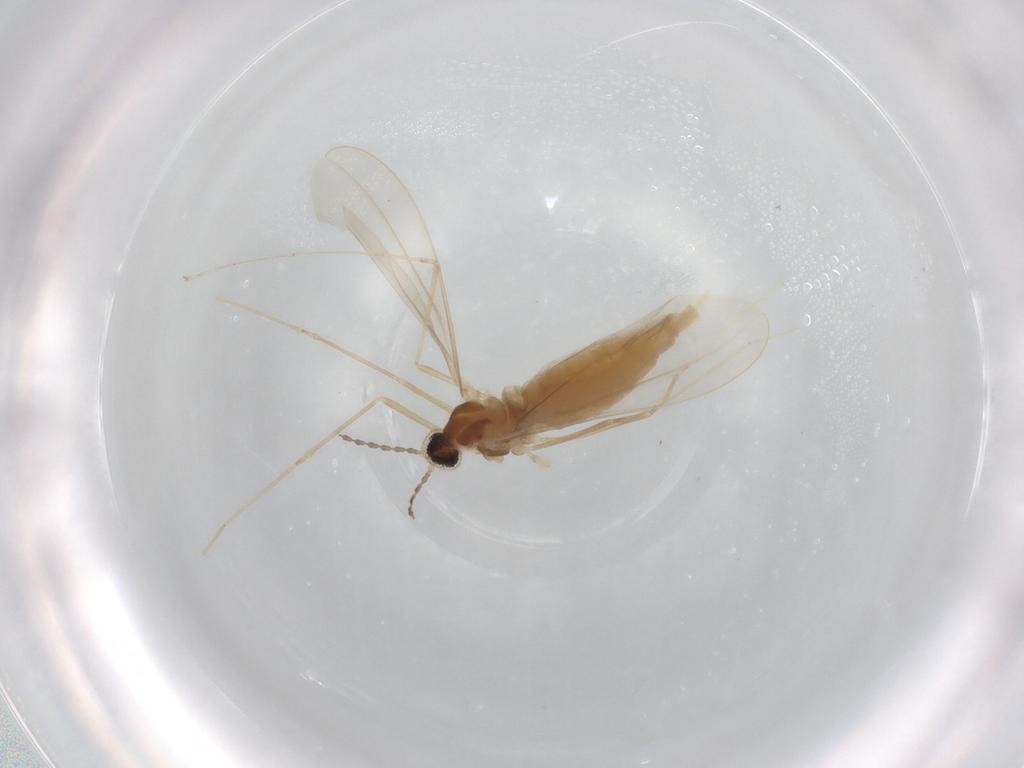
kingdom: Animalia
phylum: Arthropoda
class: Insecta
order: Diptera
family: Cecidomyiidae
